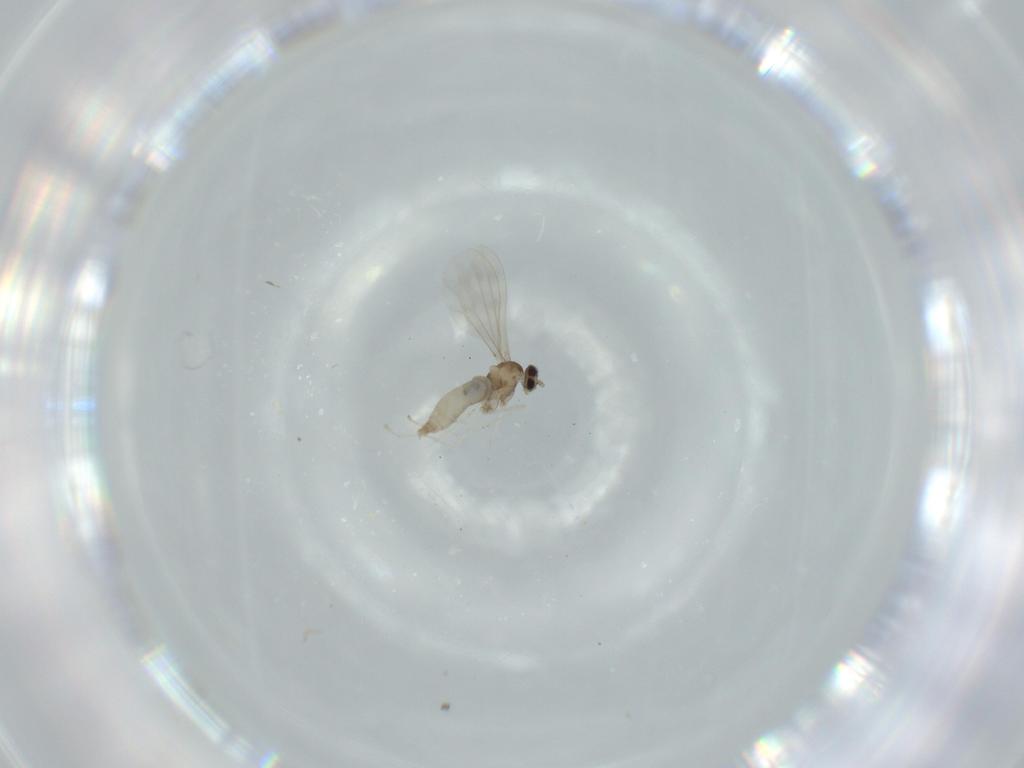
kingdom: Animalia
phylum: Arthropoda
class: Insecta
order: Diptera
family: Cecidomyiidae
